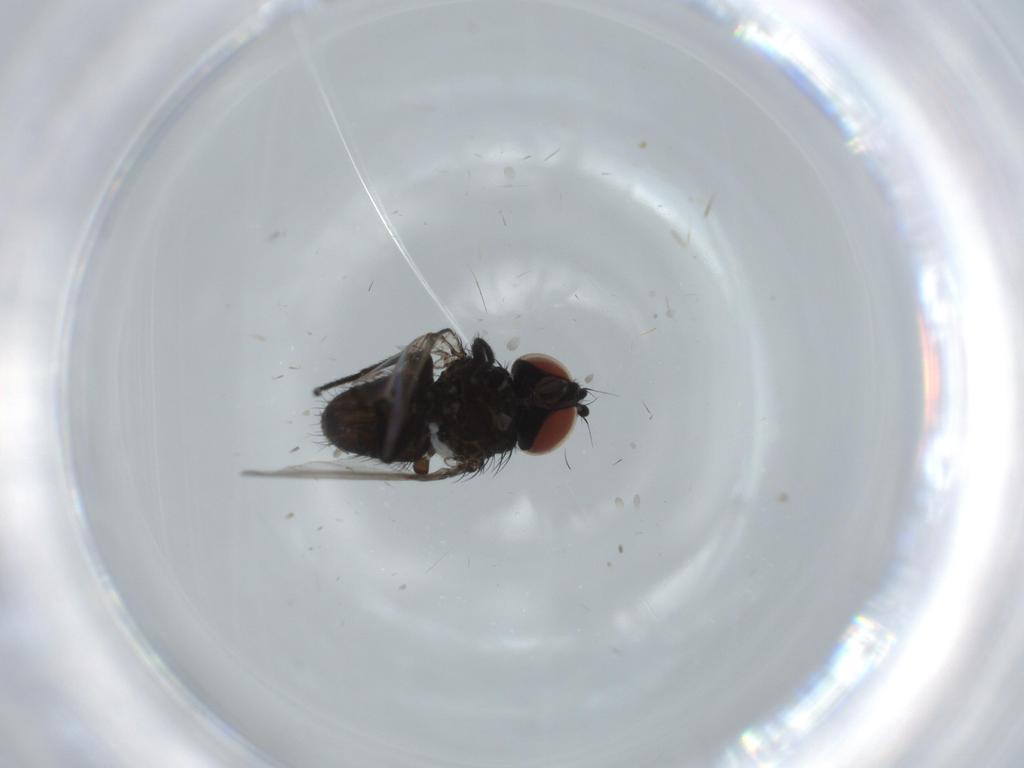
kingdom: Animalia
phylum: Arthropoda
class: Insecta
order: Diptera
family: Milichiidae
